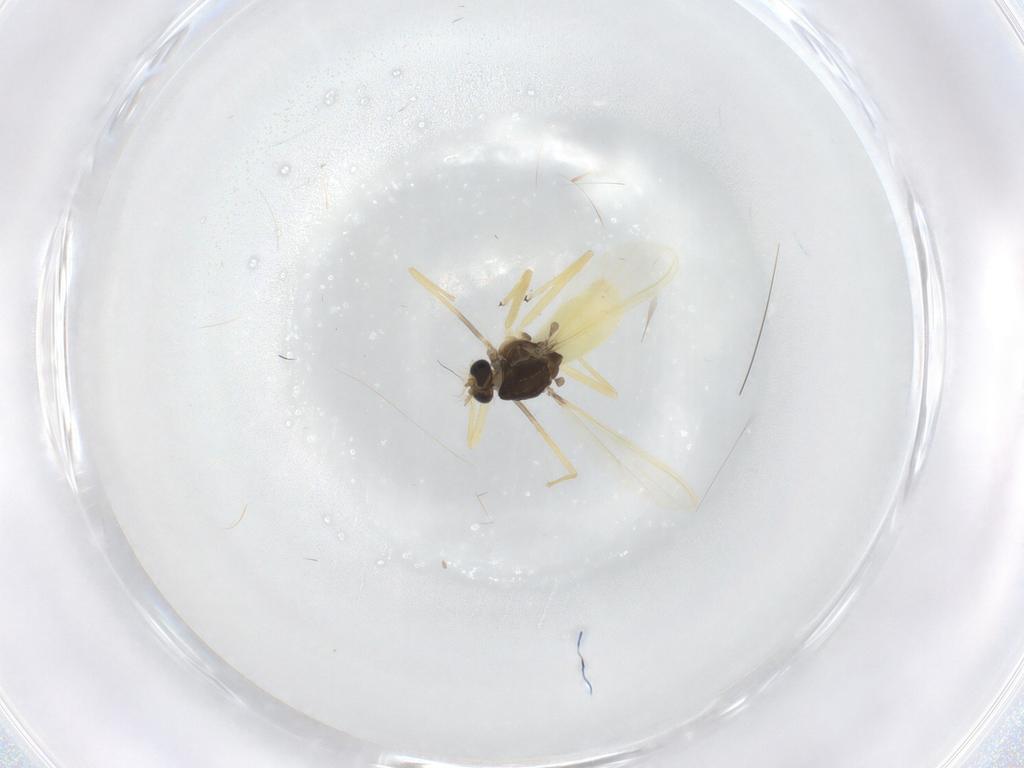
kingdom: Animalia
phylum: Arthropoda
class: Insecta
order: Diptera
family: Chironomidae
